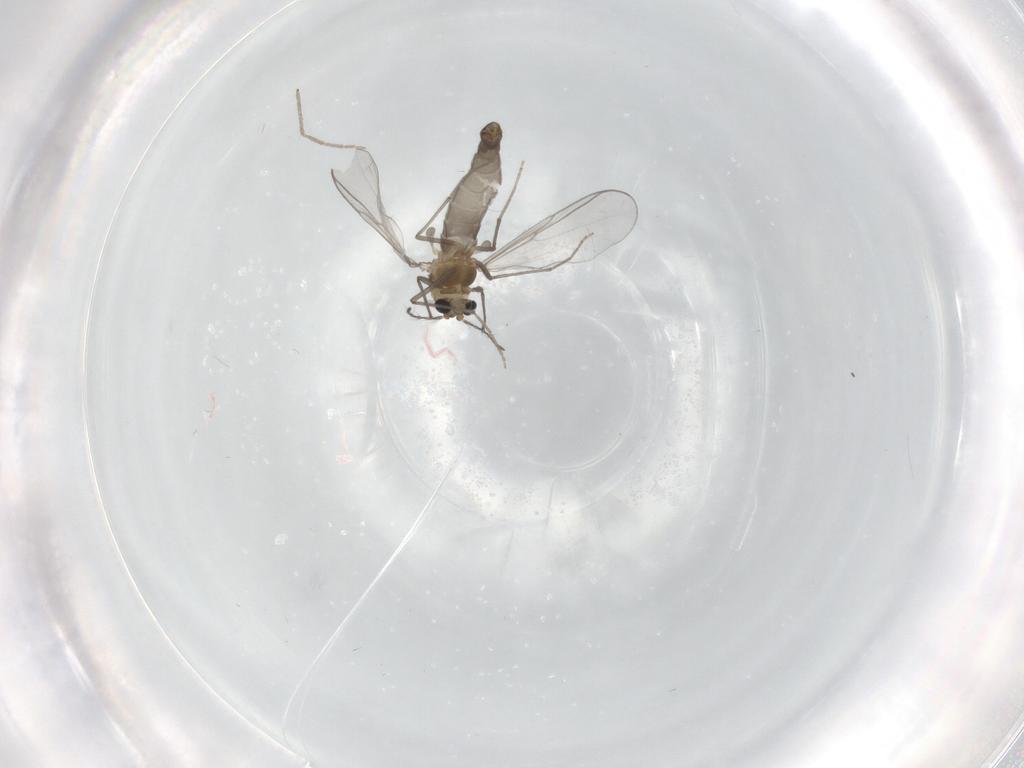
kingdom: Animalia
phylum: Arthropoda
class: Insecta
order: Diptera
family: Chironomidae
